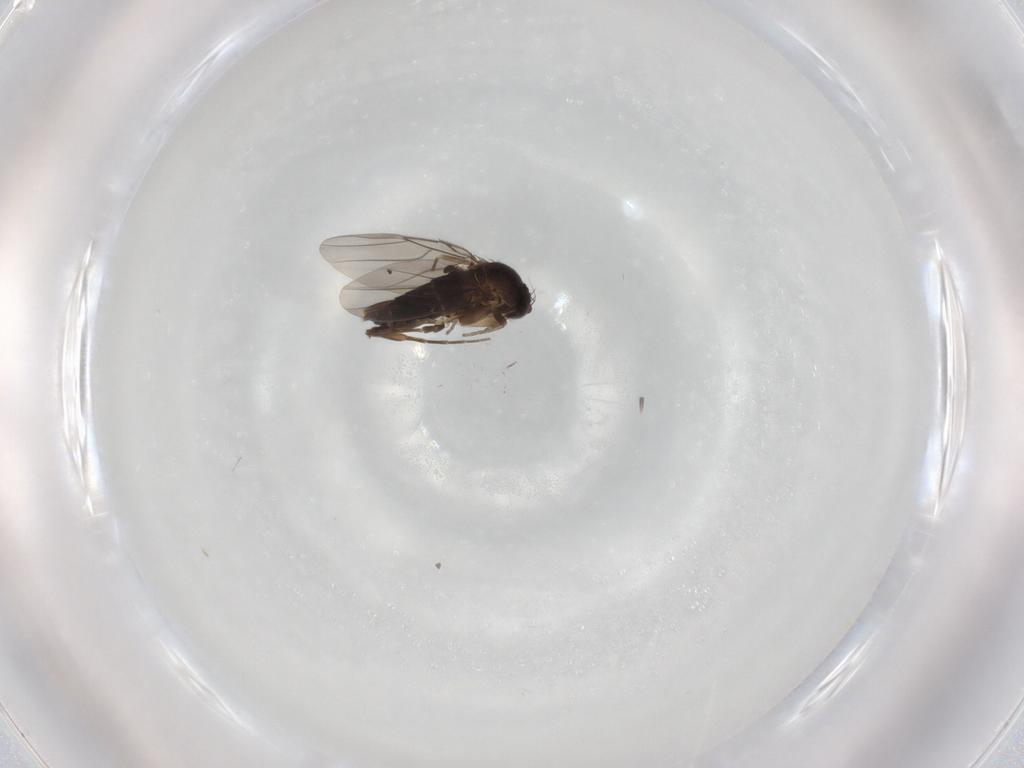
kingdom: Animalia
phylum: Arthropoda
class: Insecta
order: Diptera
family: Phoridae
